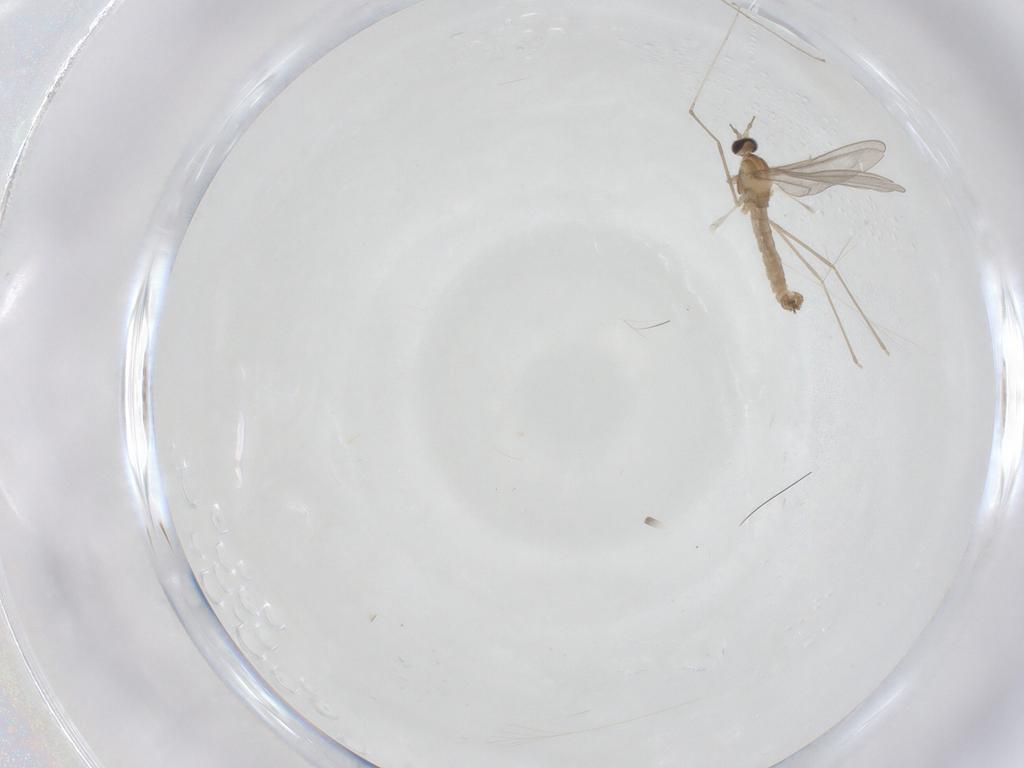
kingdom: Animalia
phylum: Arthropoda
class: Insecta
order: Diptera
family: Cecidomyiidae
